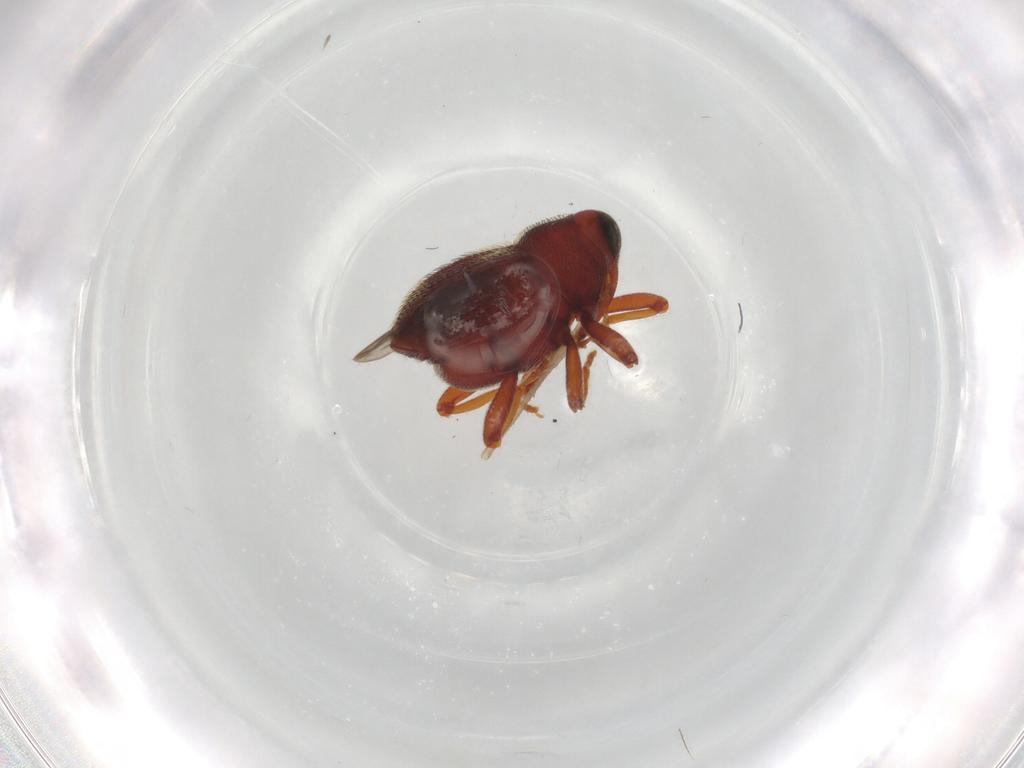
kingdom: Animalia
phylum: Arthropoda
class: Insecta
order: Coleoptera
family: Curculionidae
